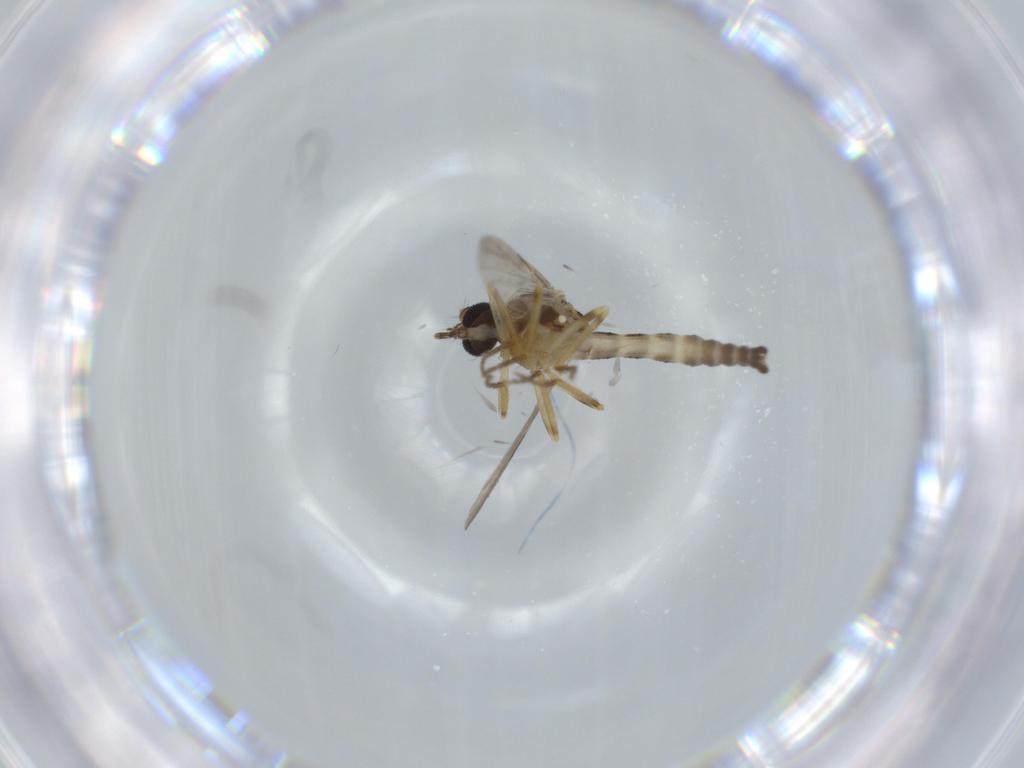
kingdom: Animalia
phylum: Arthropoda
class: Insecta
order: Diptera
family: Ceratopogonidae
